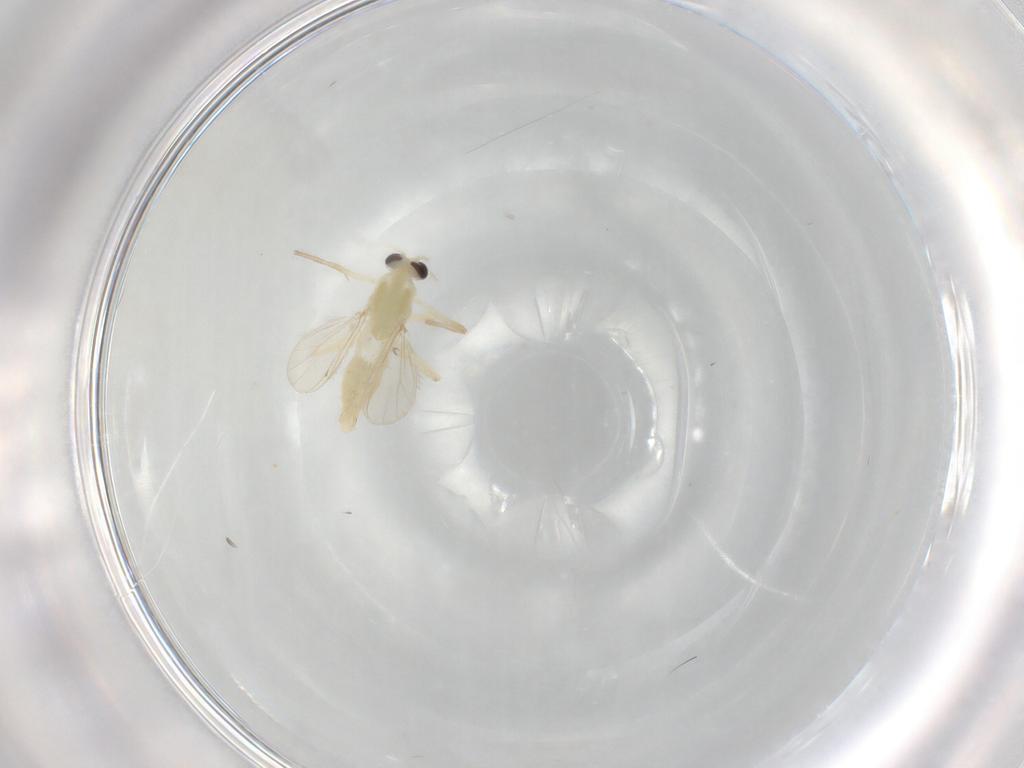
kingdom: Animalia
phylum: Arthropoda
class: Insecta
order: Diptera
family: Chironomidae
